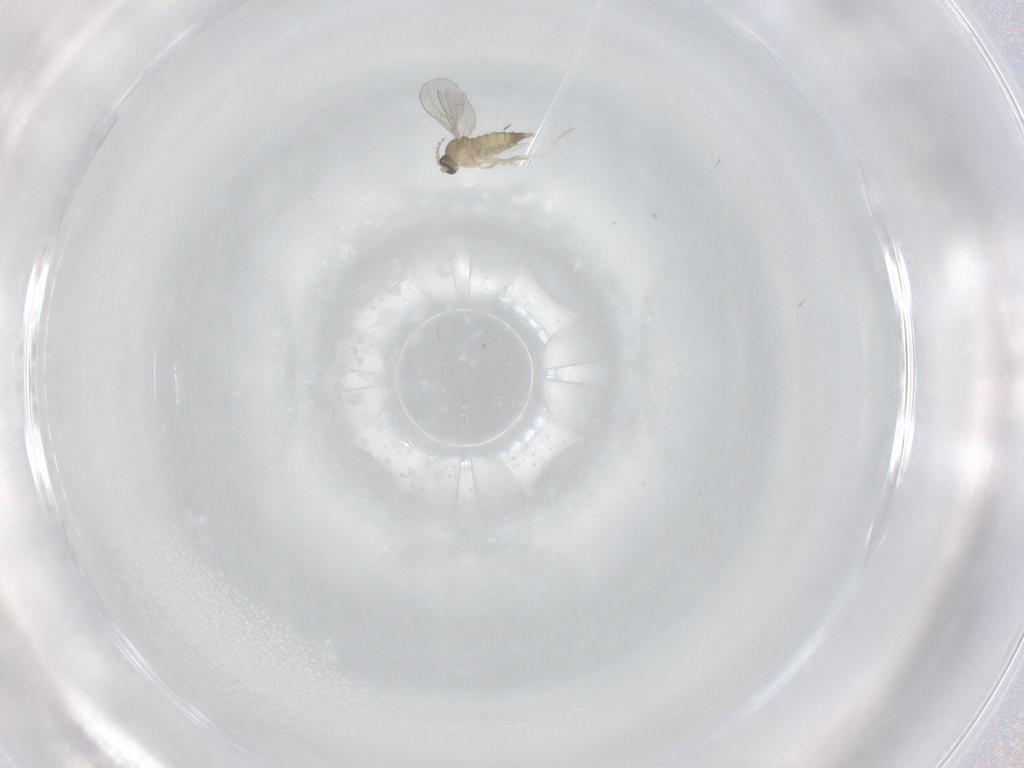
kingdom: Animalia
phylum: Arthropoda
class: Insecta
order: Diptera
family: Cecidomyiidae
